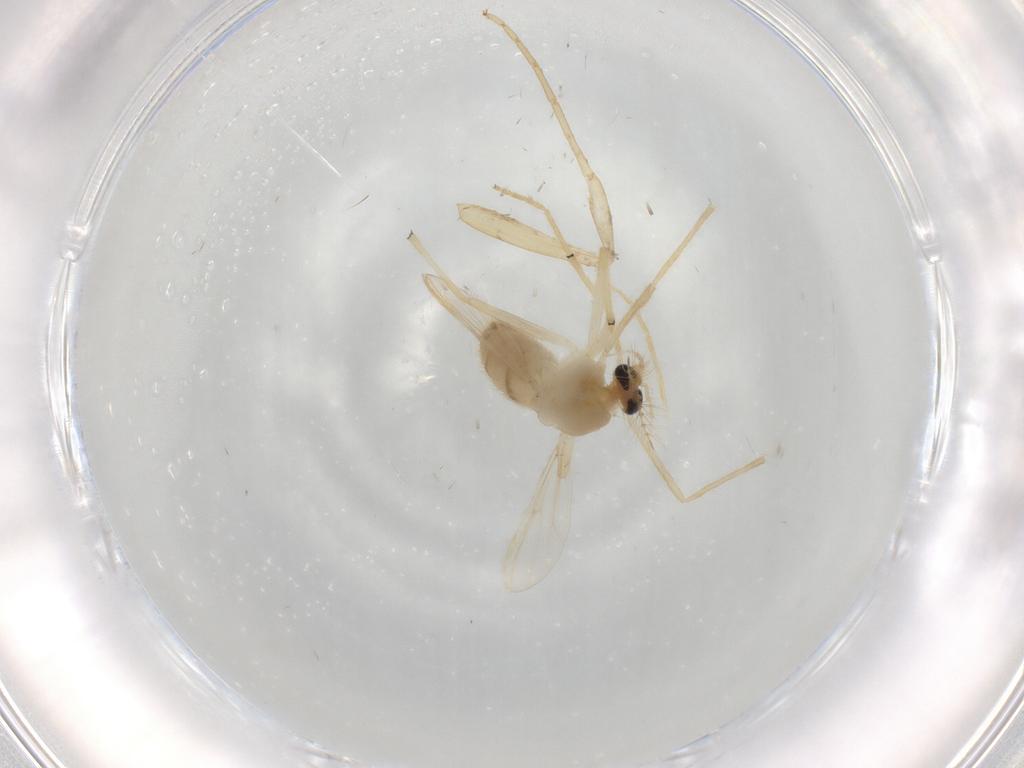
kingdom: Animalia
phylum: Arthropoda
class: Insecta
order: Diptera
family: Chironomidae
